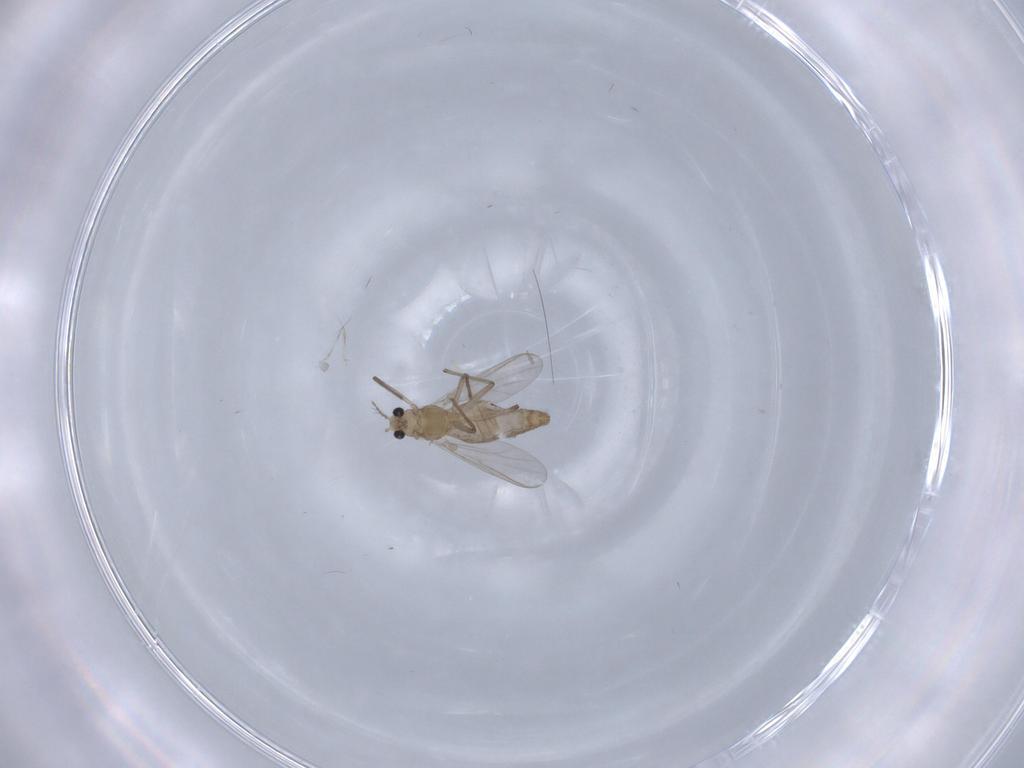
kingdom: Animalia
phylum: Arthropoda
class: Insecta
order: Diptera
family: Chironomidae
